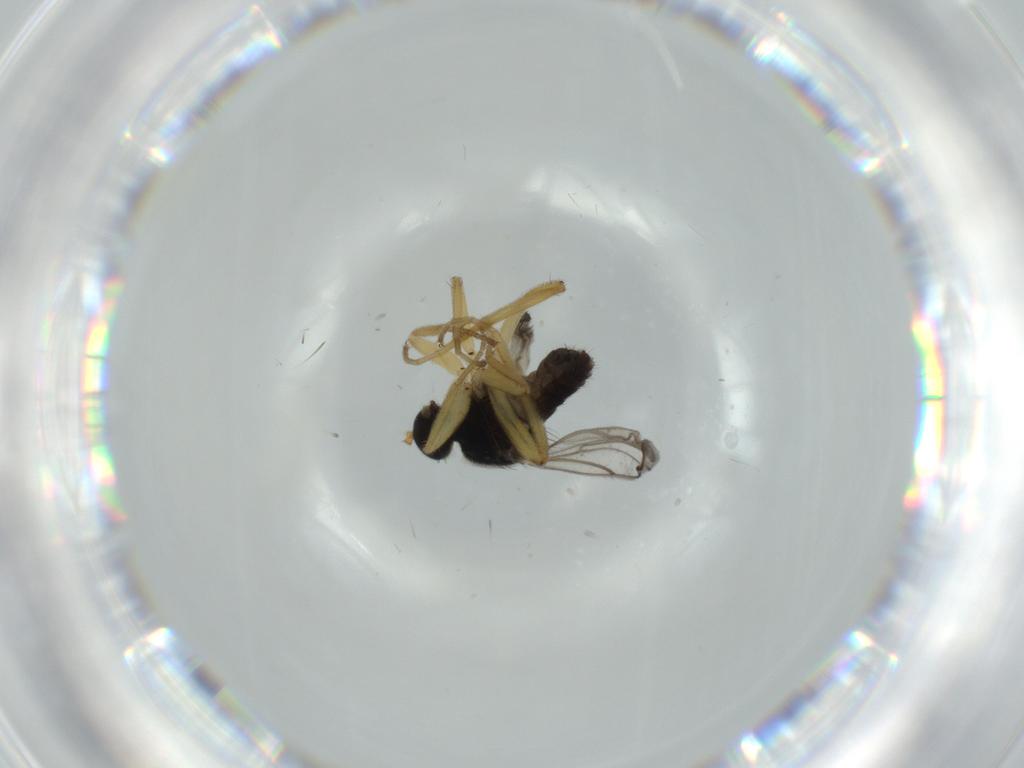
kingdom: Animalia
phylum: Arthropoda
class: Insecta
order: Diptera
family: Hybotidae
